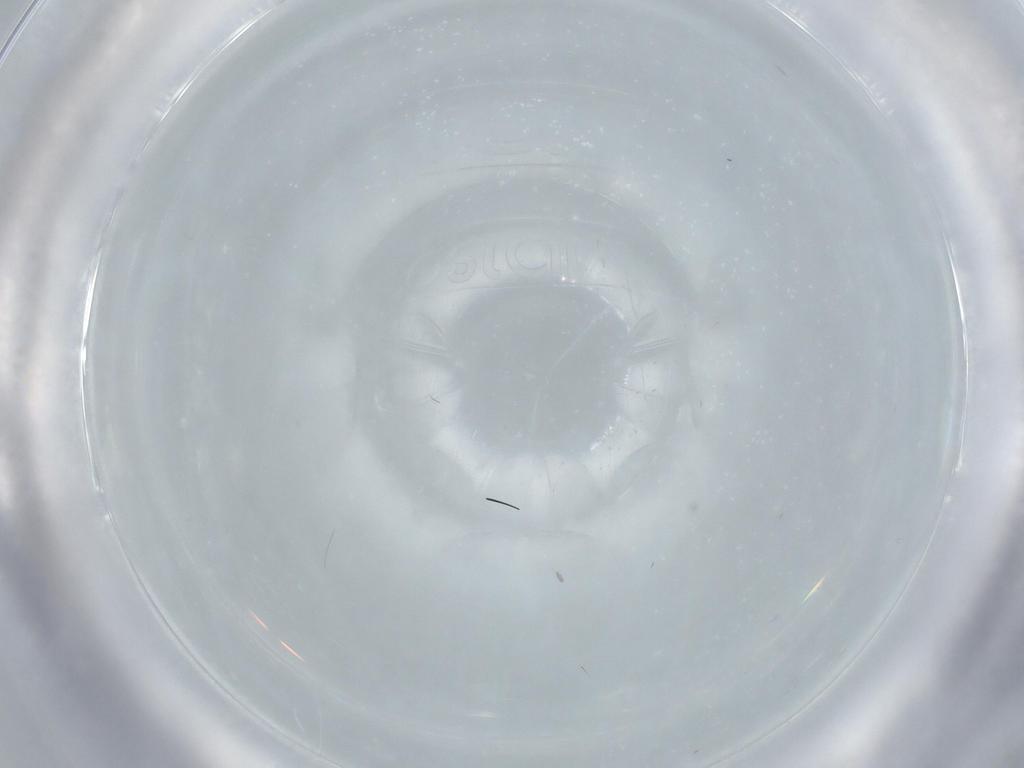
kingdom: Animalia
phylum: Arthropoda
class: Insecta
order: Diptera
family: Milichiidae
